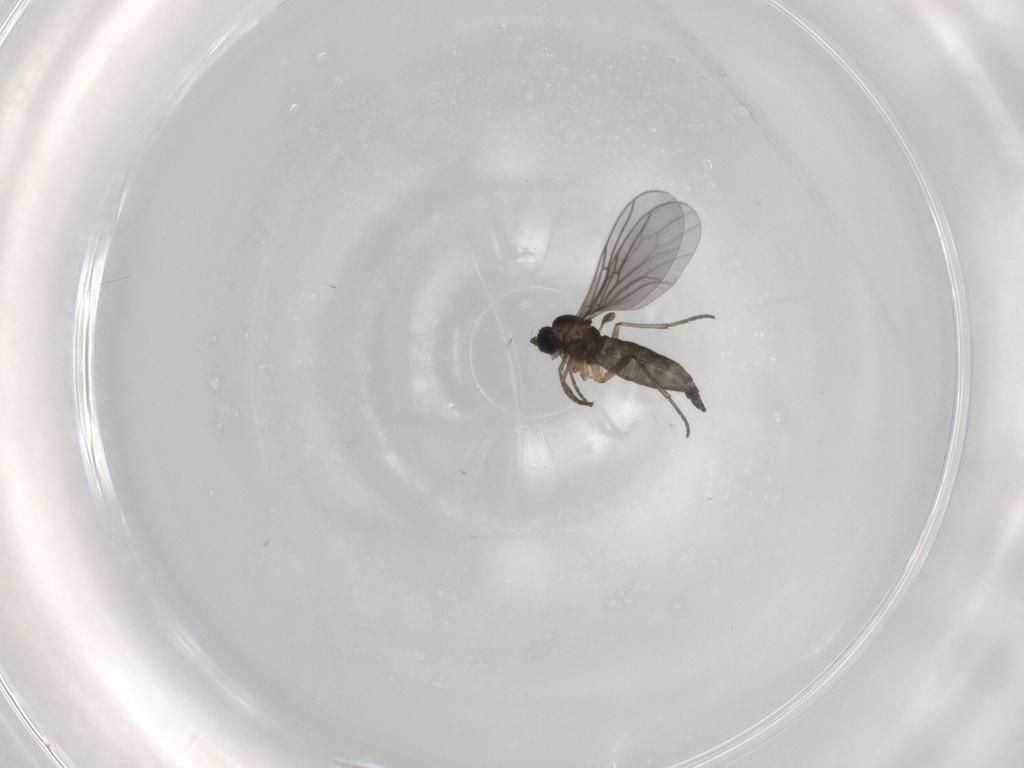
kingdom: Animalia
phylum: Arthropoda
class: Insecta
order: Diptera
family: Sciaridae
